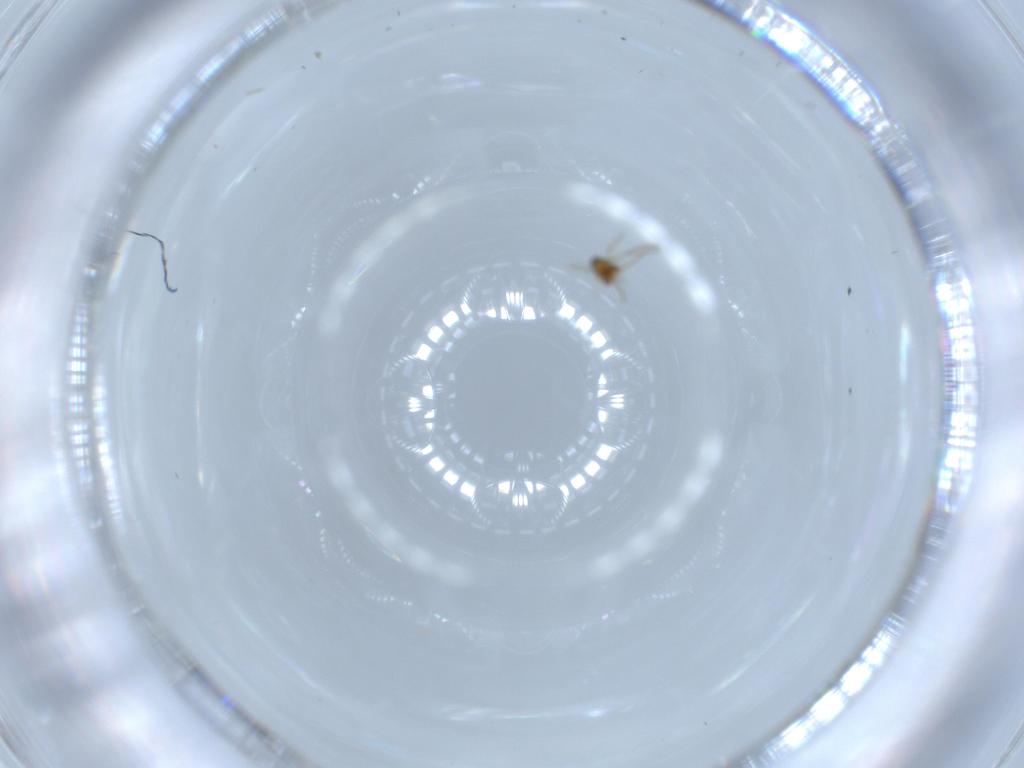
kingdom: Animalia
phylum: Arthropoda
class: Insecta
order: Hymenoptera
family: Aphelinidae
